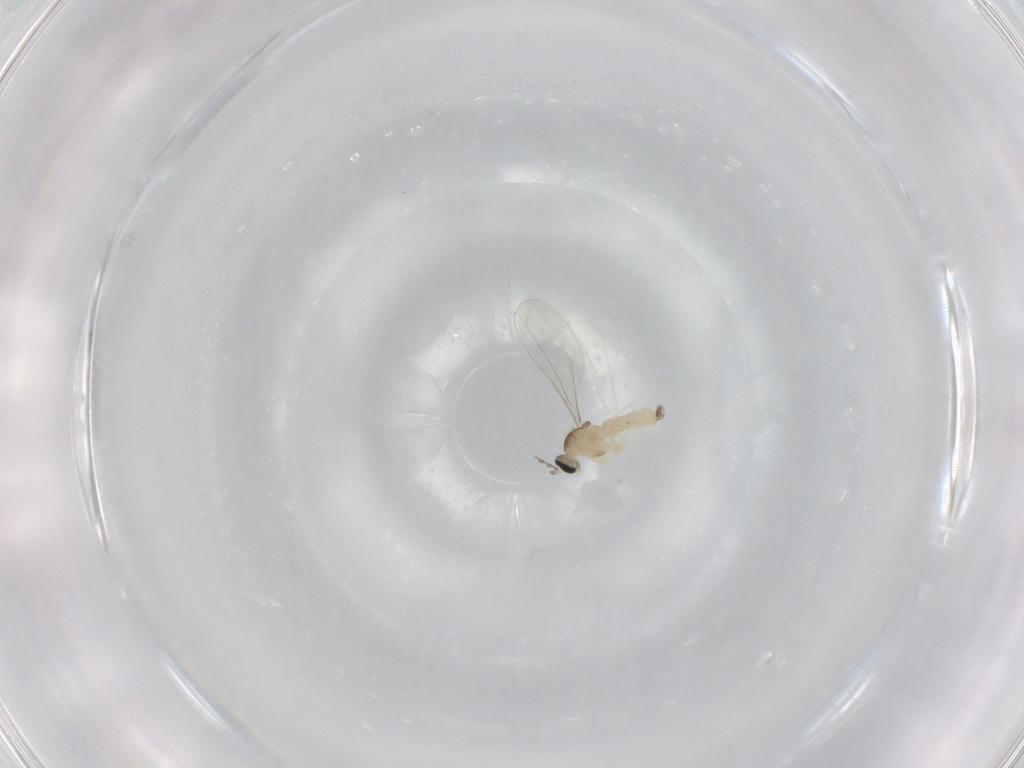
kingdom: Animalia
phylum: Arthropoda
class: Insecta
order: Diptera
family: Cecidomyiidae
